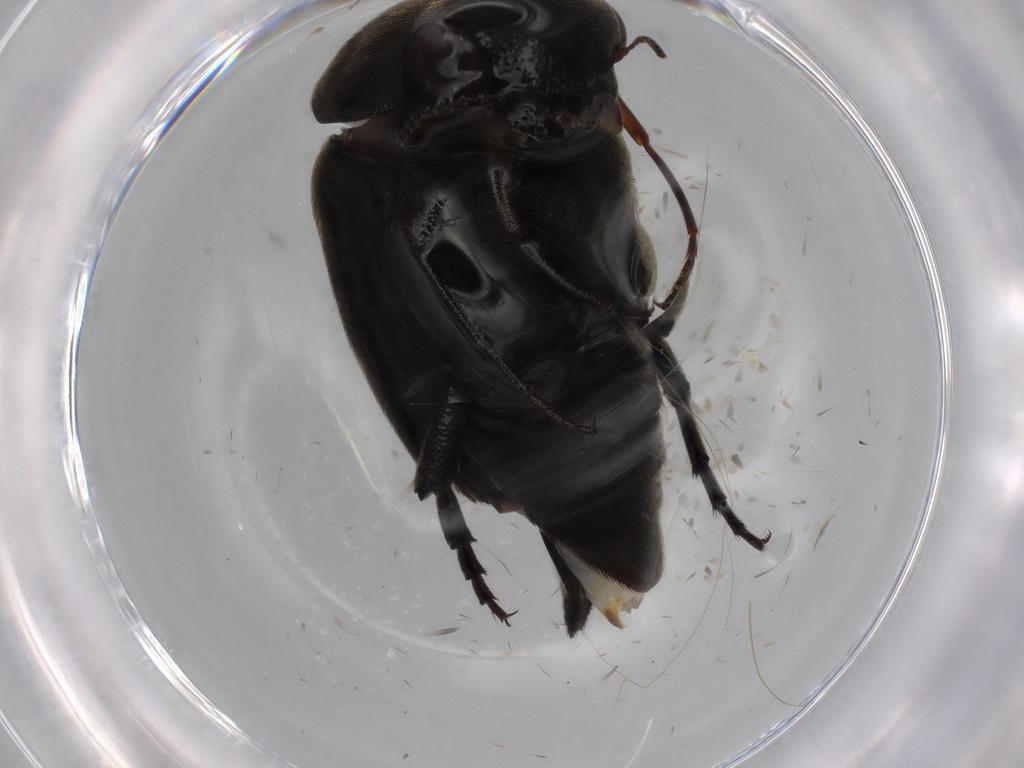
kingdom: Animalia
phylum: Arthropoda
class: Insecta
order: Coleoptera
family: Mordellidae
